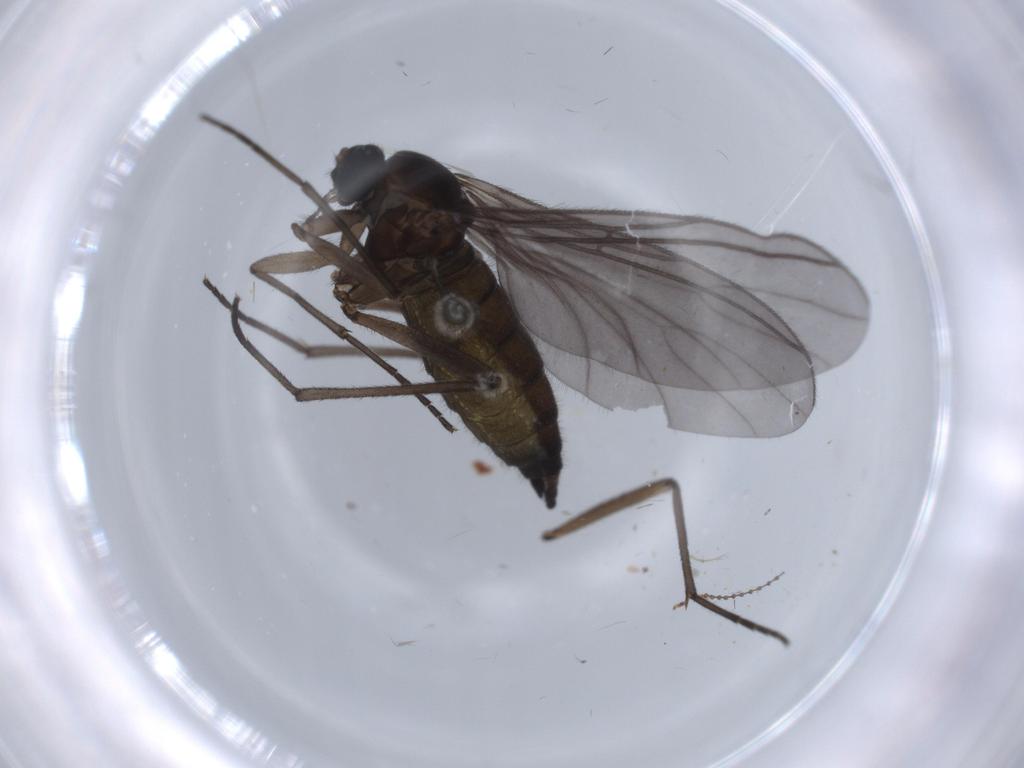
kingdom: Animalia
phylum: Arthropoda
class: Insecta
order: Diptera
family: Sciaridae
